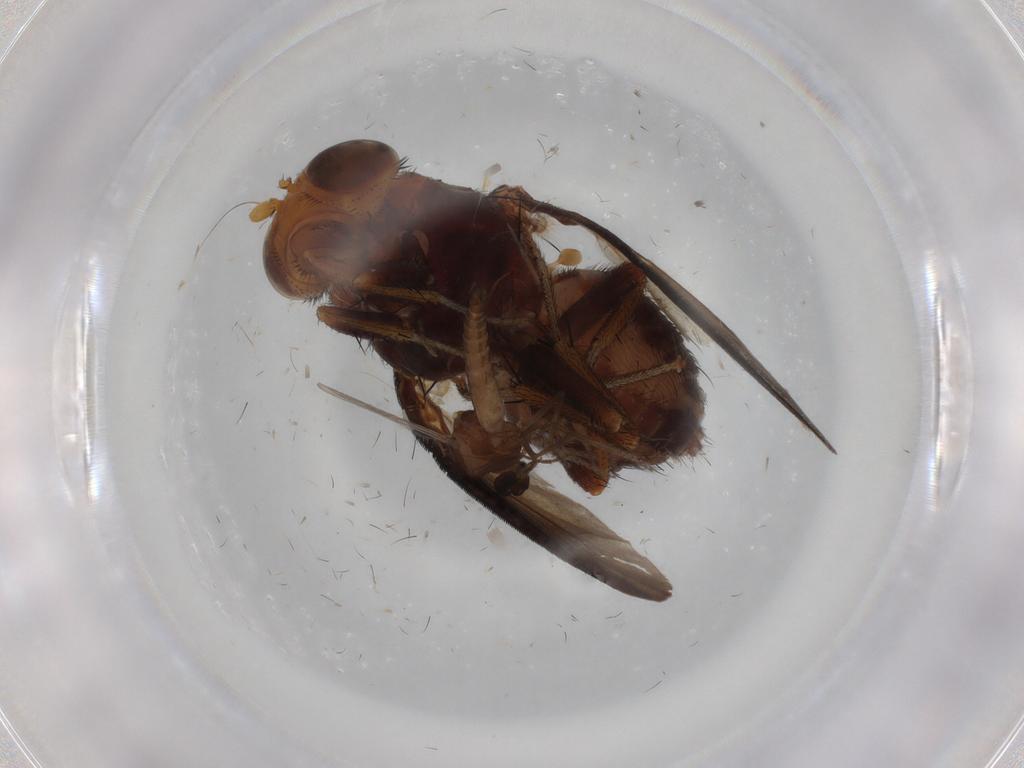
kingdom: Animalia
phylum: Arthropoda
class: Insecta
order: Diptera
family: Ceratopogonidae
